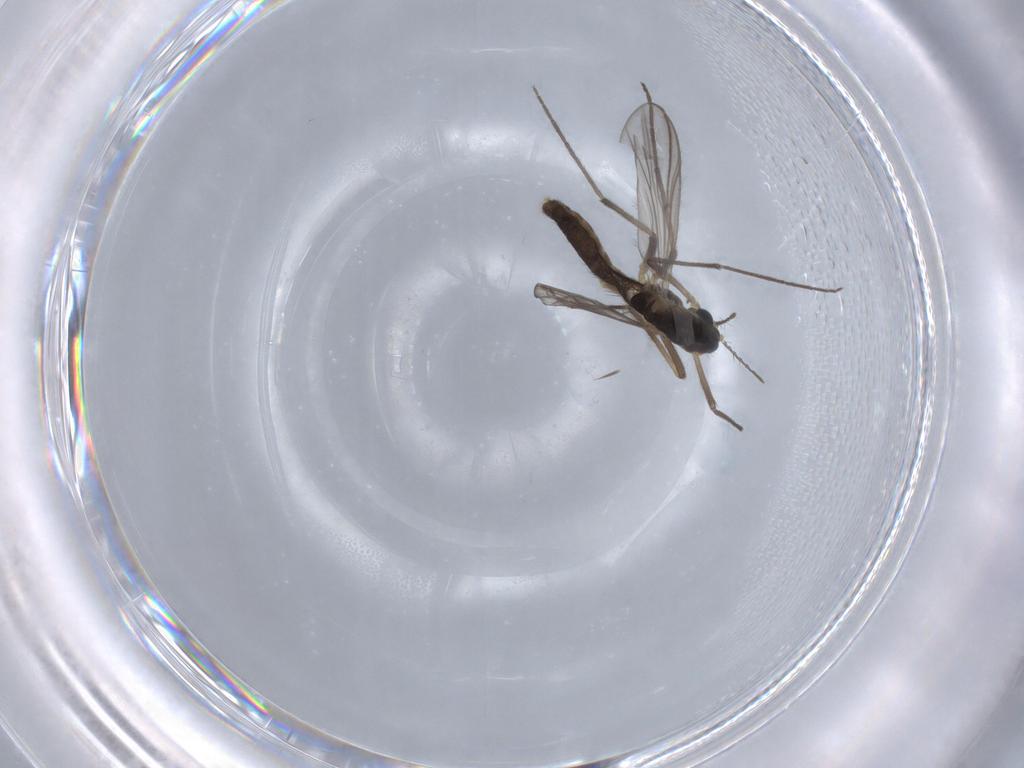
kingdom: Animalia
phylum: Arthropoda
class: Insecta
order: Diptera
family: Chironomidae
